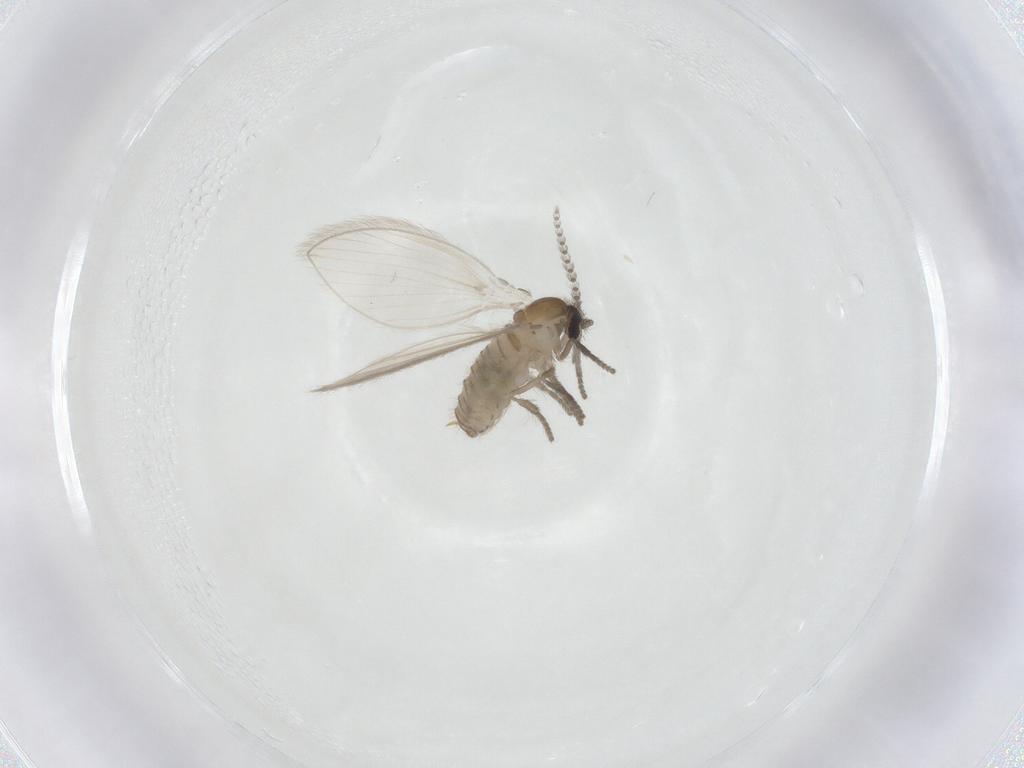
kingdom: Animalia
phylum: Arthropoda
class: Insecta
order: Diptera
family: Psychodidae
